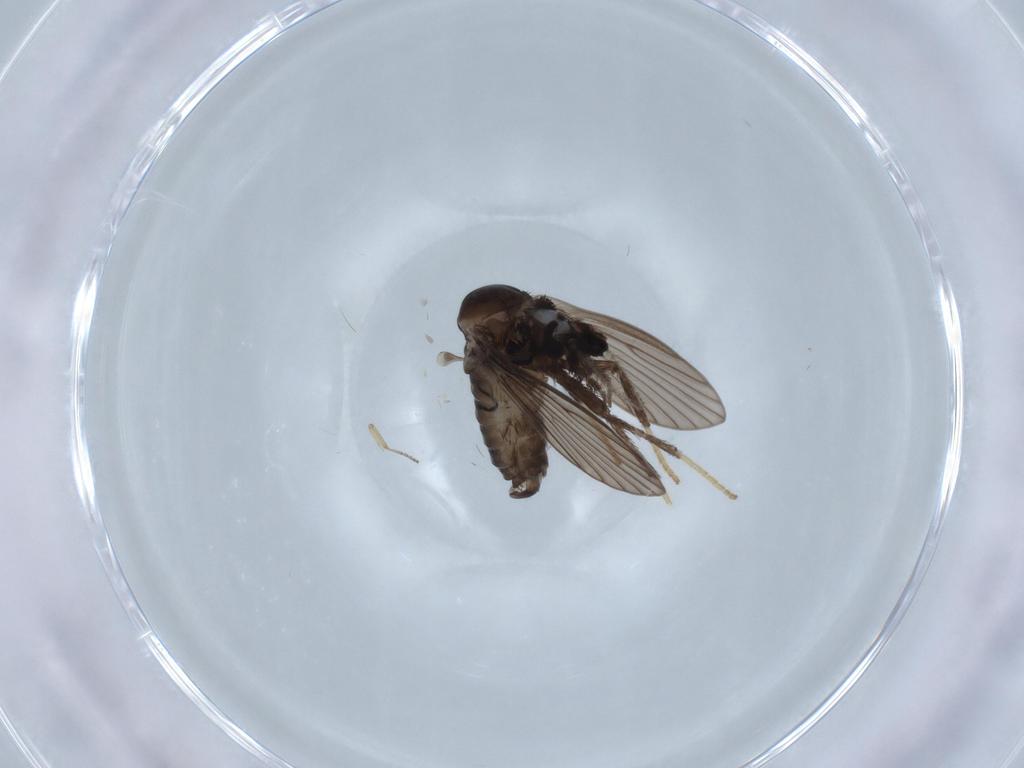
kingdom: Animalia
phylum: Arthropoda
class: Insecta
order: Diptera
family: Psychodidae
